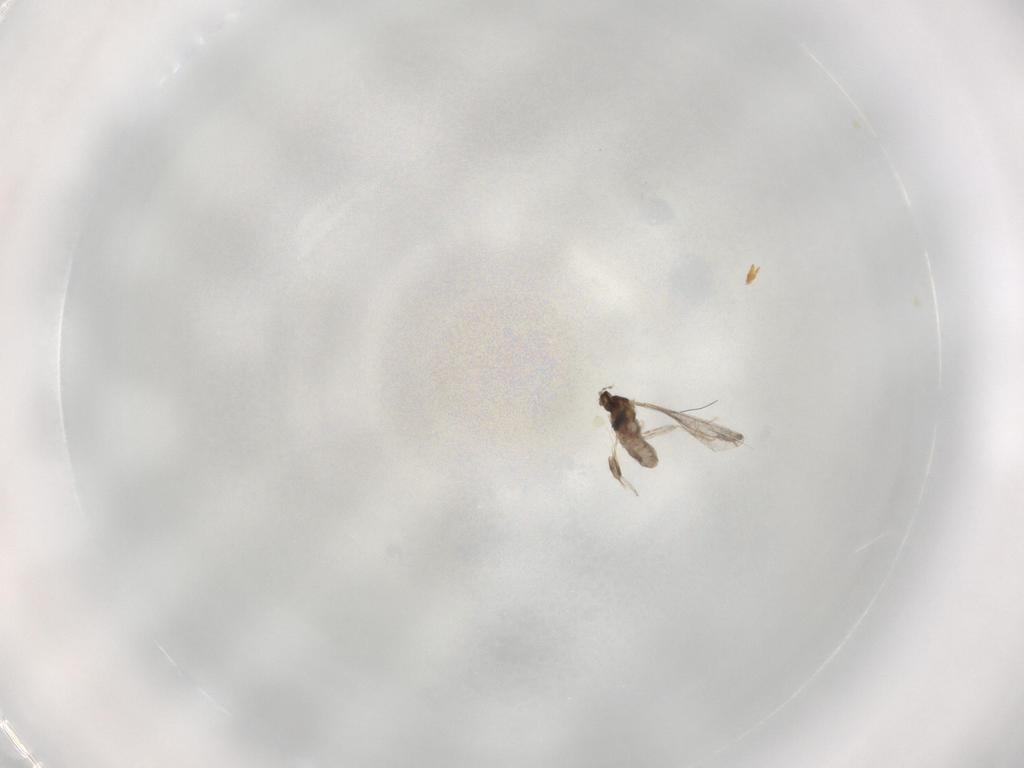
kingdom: Animalia
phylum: Arthropoda
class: Insecta
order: Diptera
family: Cecidomyiidae
